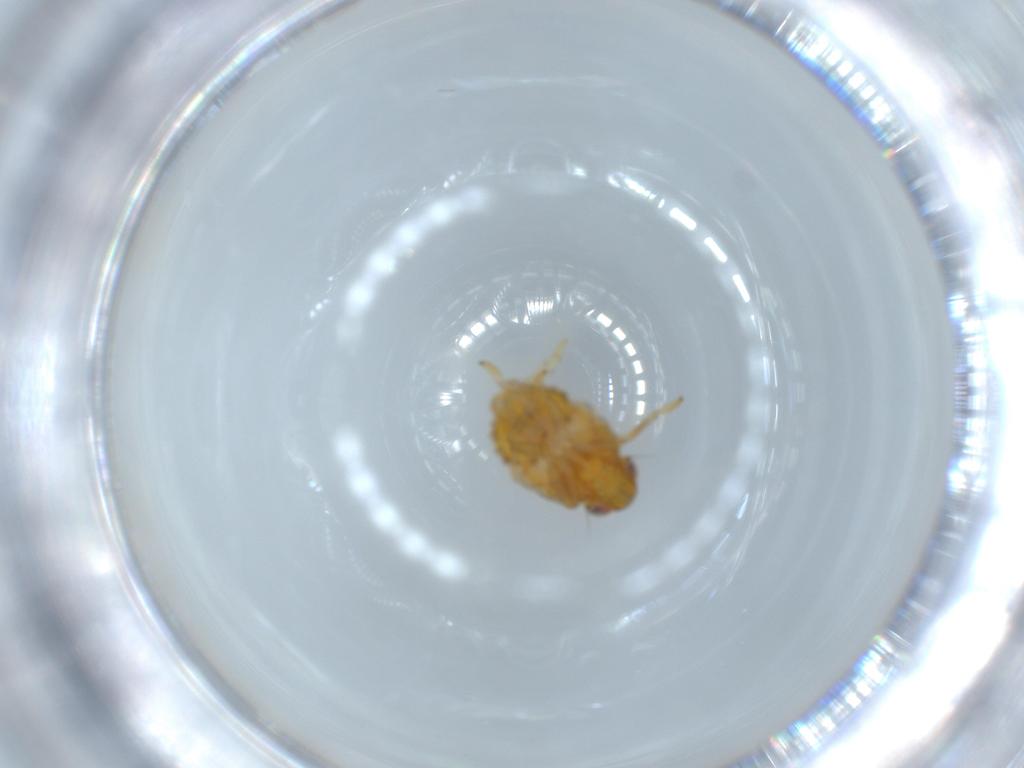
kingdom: Animalia
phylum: Arthropoda
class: Insecta
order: Hemiptera
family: Issidae
